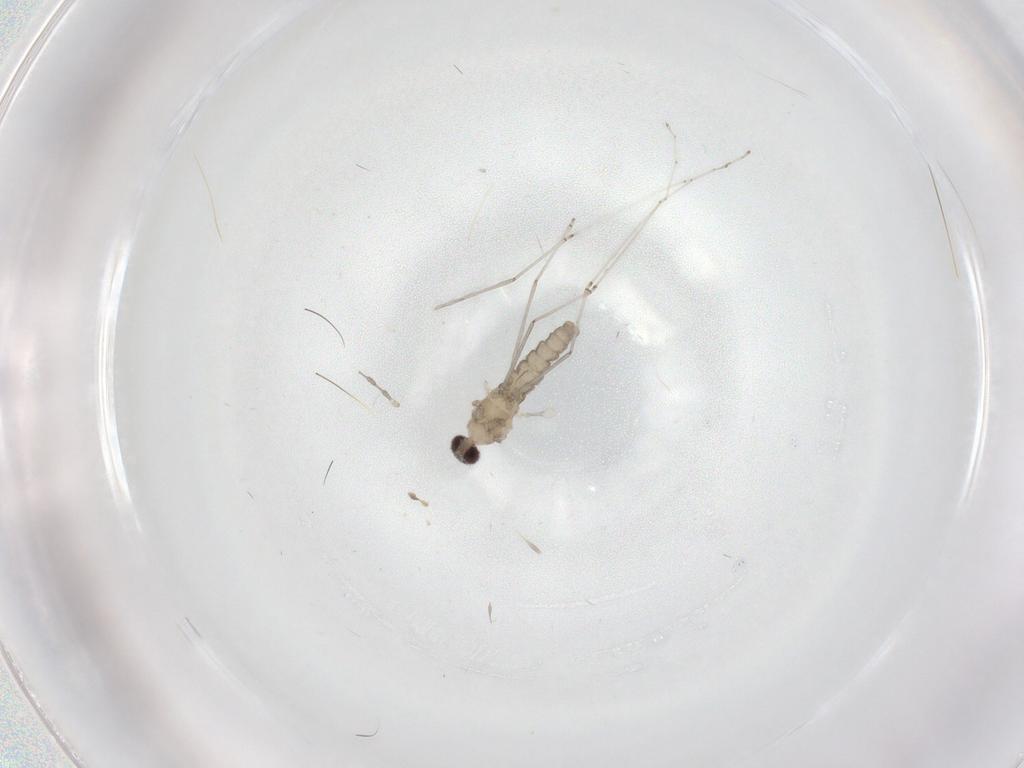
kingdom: Animalia
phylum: Arthropoda
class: Insecta
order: Diptera
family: Cecidomyiidae
